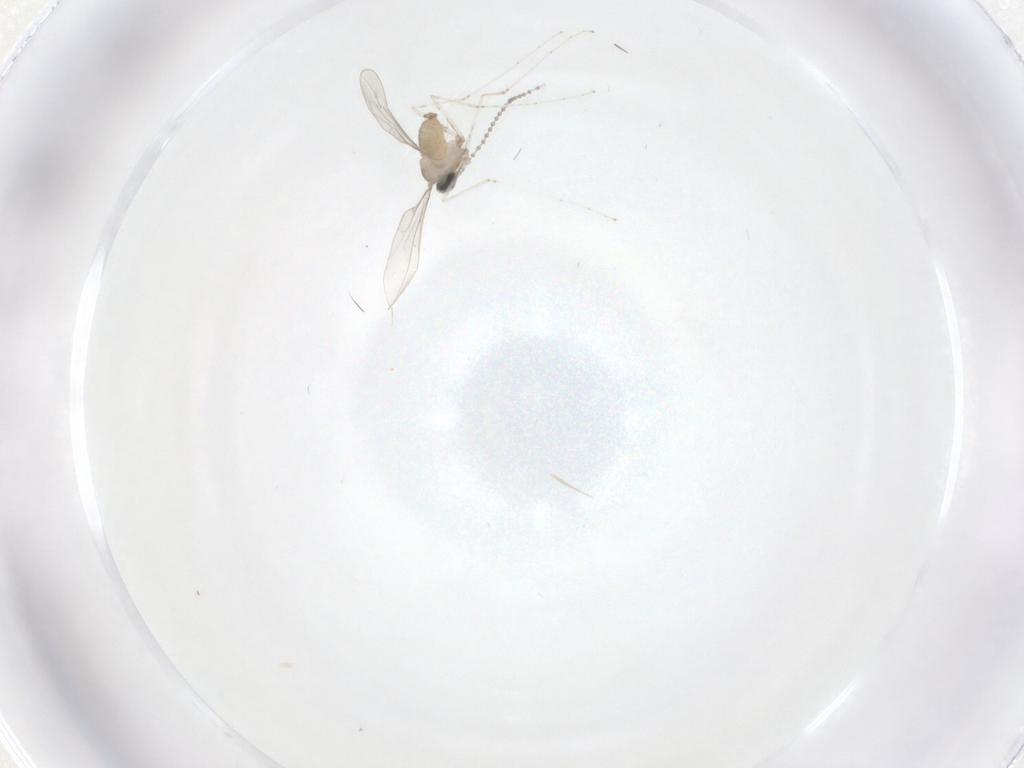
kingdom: Animalia
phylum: Arthropoda
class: Insecta
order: Diptera
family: Cecidomyiidae
